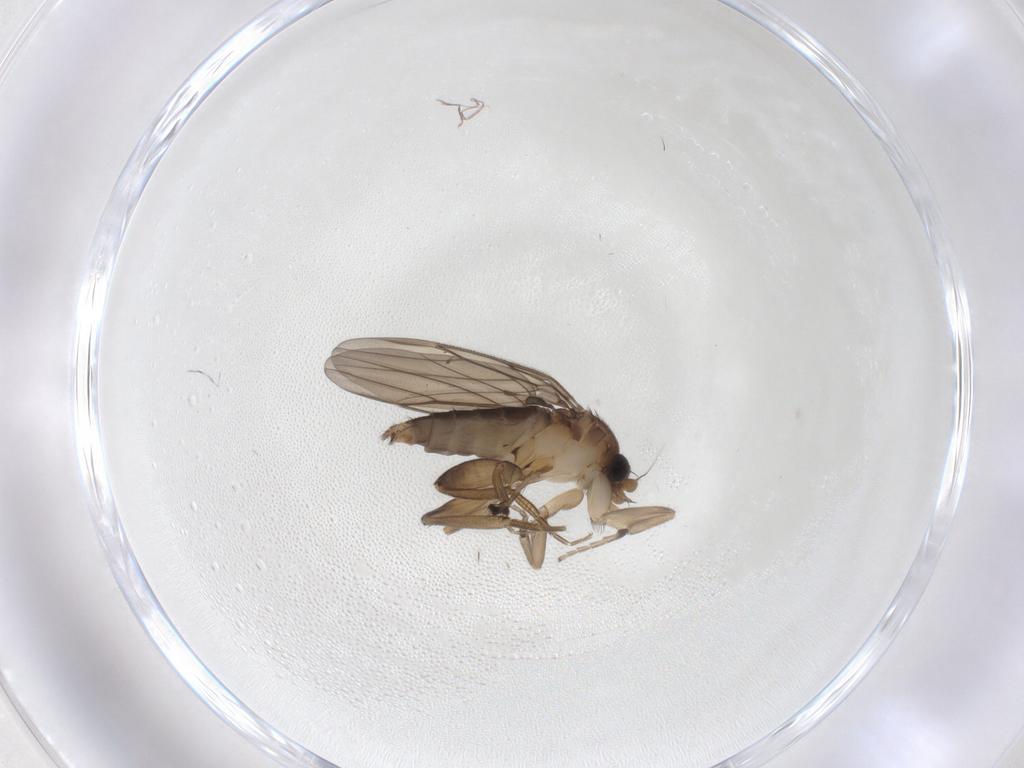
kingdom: Animalia
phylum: Arthropoda
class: Insecta
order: Diptera
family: Phoridae
